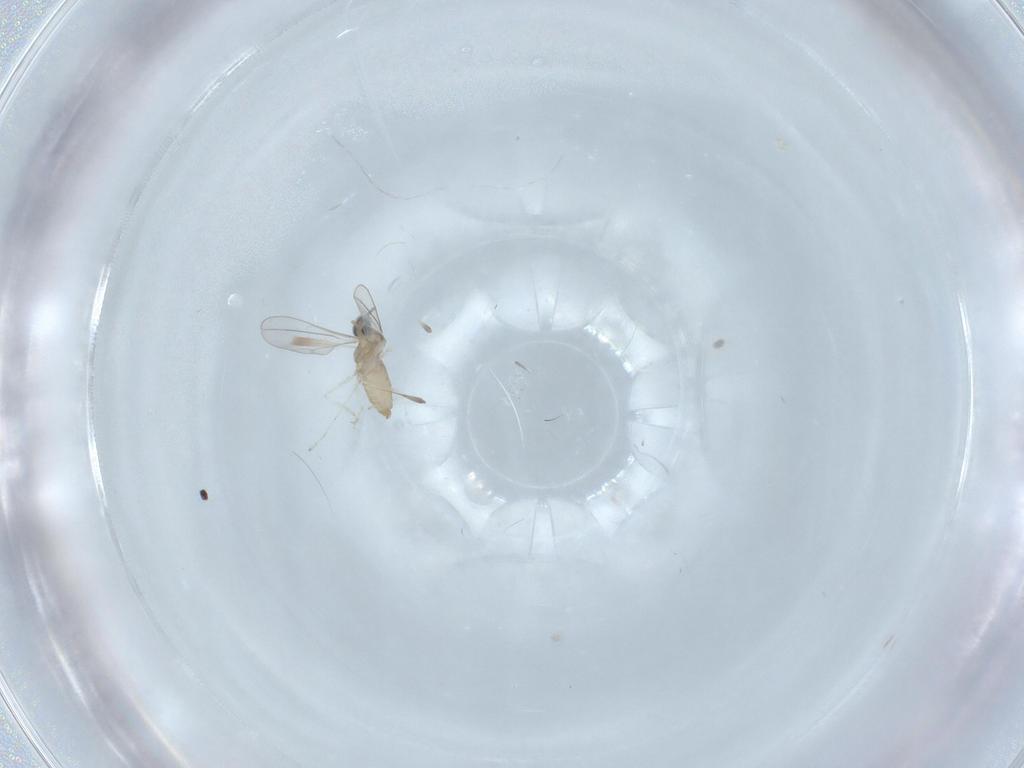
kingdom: Animalia
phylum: Arthropoda
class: Insecta
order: Diptera
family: Cecidomyiidae
